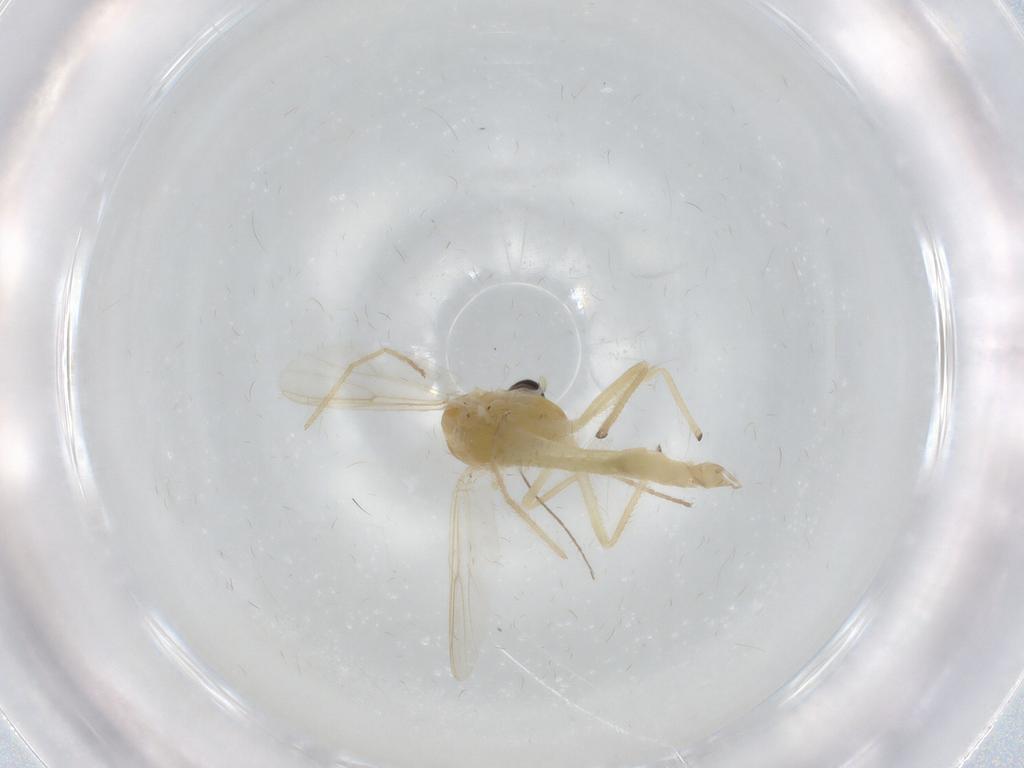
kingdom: Animalia
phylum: Arthropoda
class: Insecta
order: Diptera
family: Chironomidae
